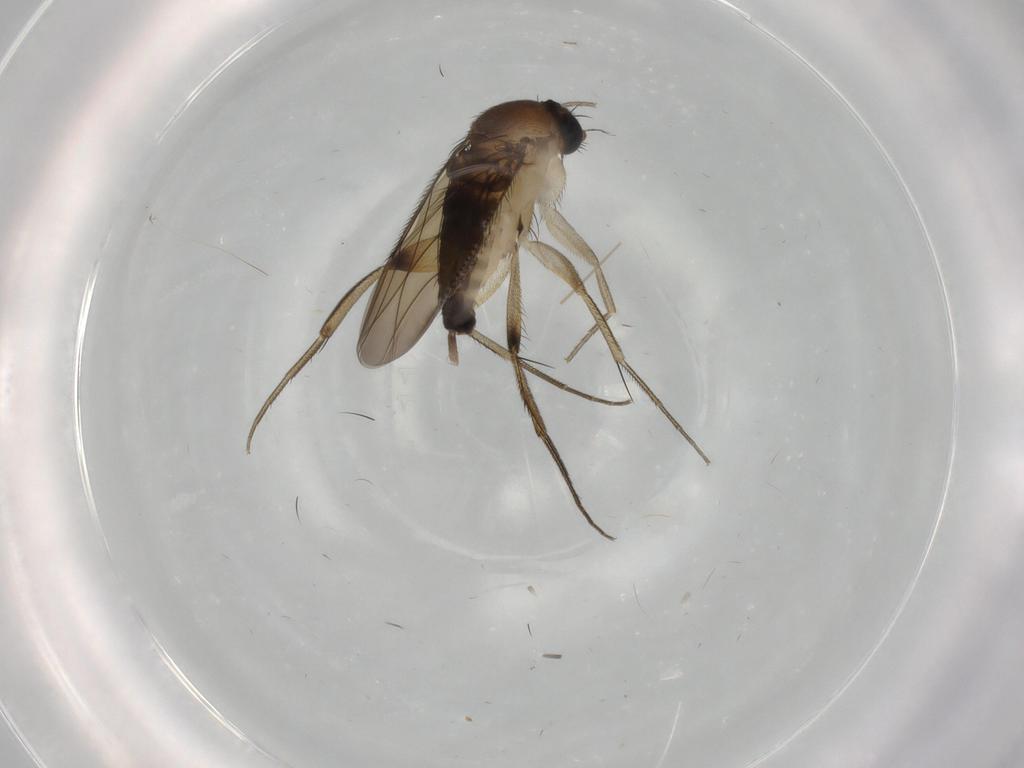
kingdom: Animalia
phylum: Arthropoda
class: Insecta
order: Diptera
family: Phoridae
